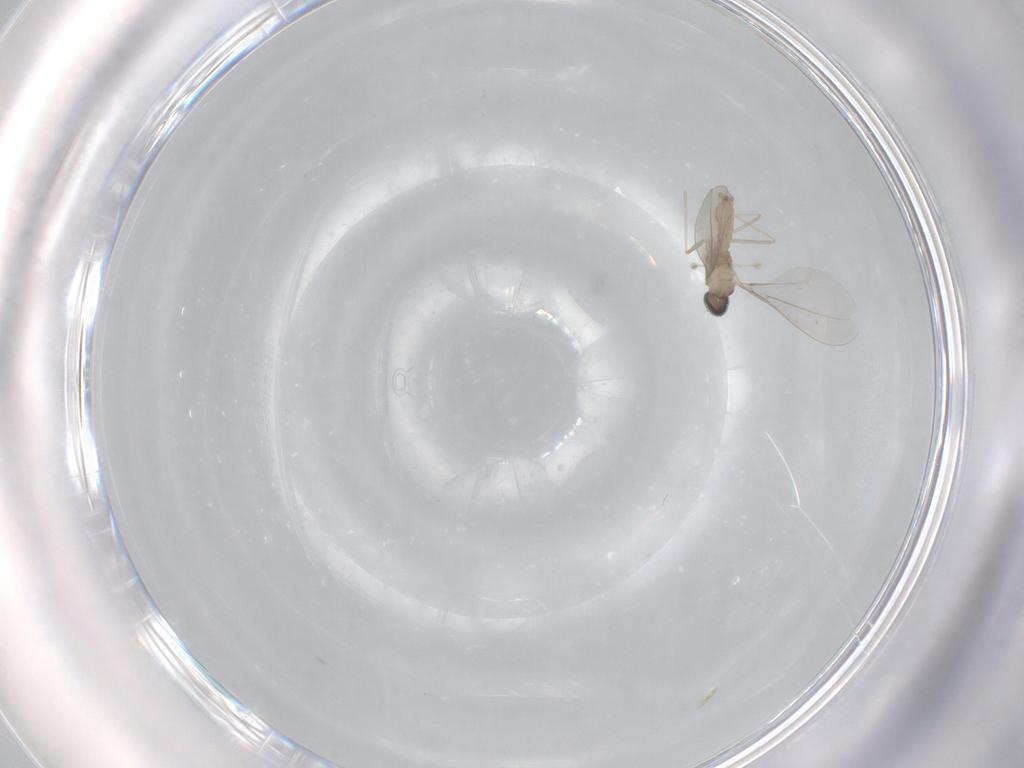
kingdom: Animalia
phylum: Arthropoda
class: Insecta
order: Diptera
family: Cecidomyiidae
